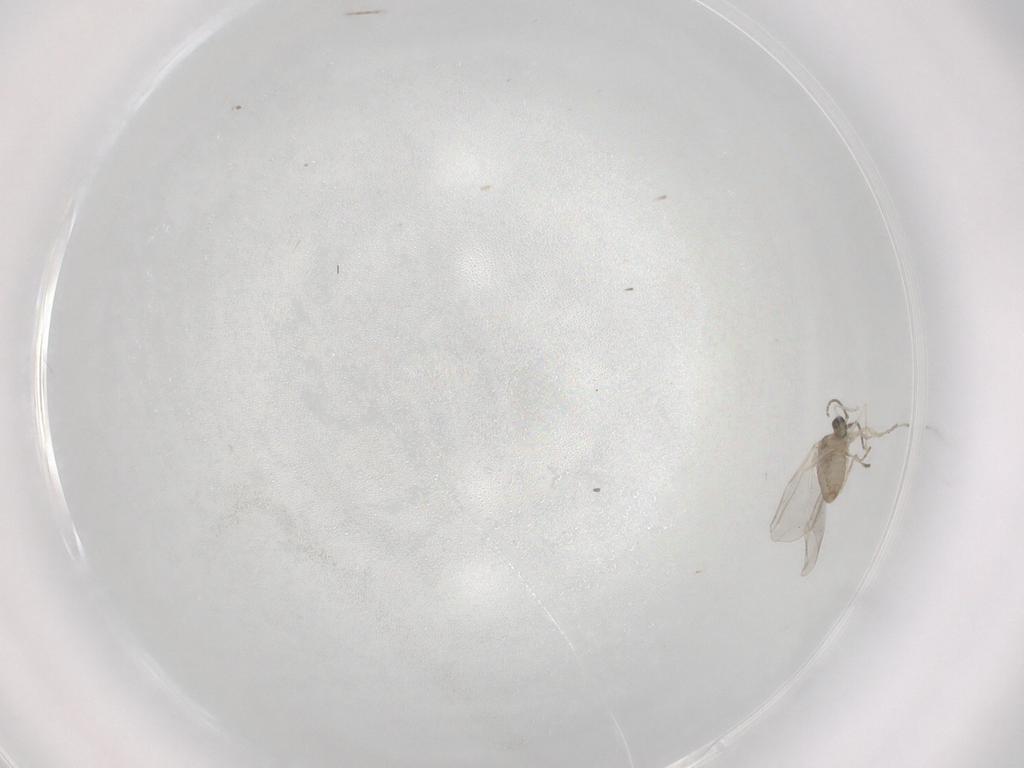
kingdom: Animalia
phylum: Arthropoda
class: Insecta
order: Diptera
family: Cecidomyiidae
